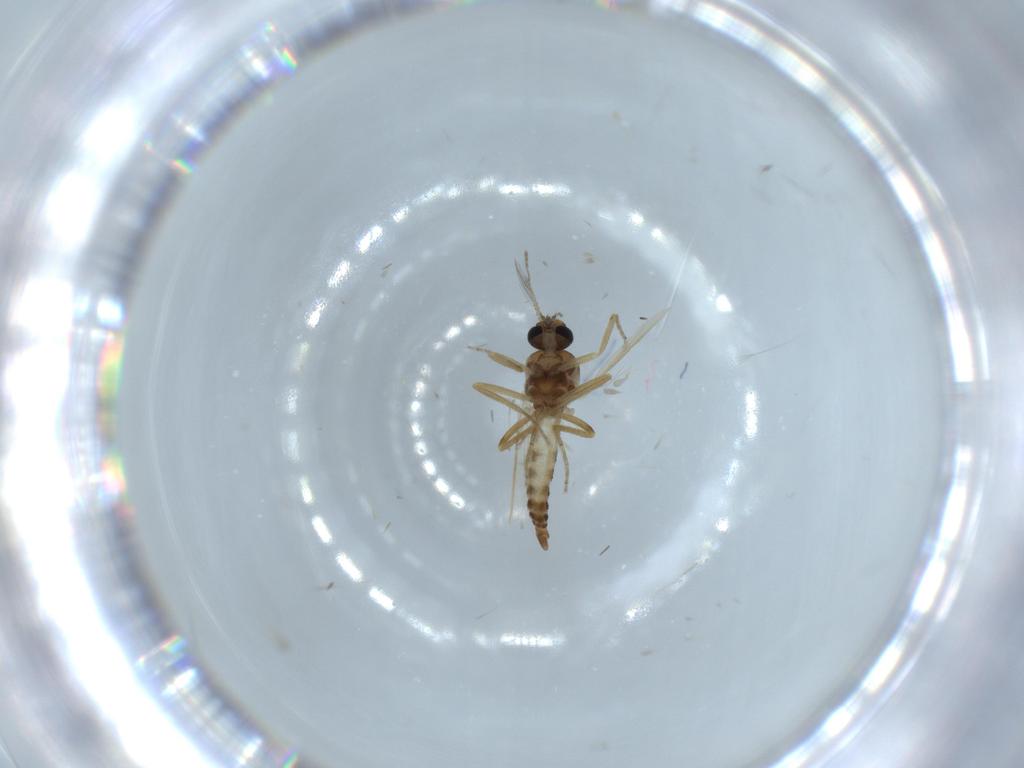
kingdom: Animalia
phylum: Arthropoda
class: Insecta
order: Diptera
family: Ceratopogonidae
